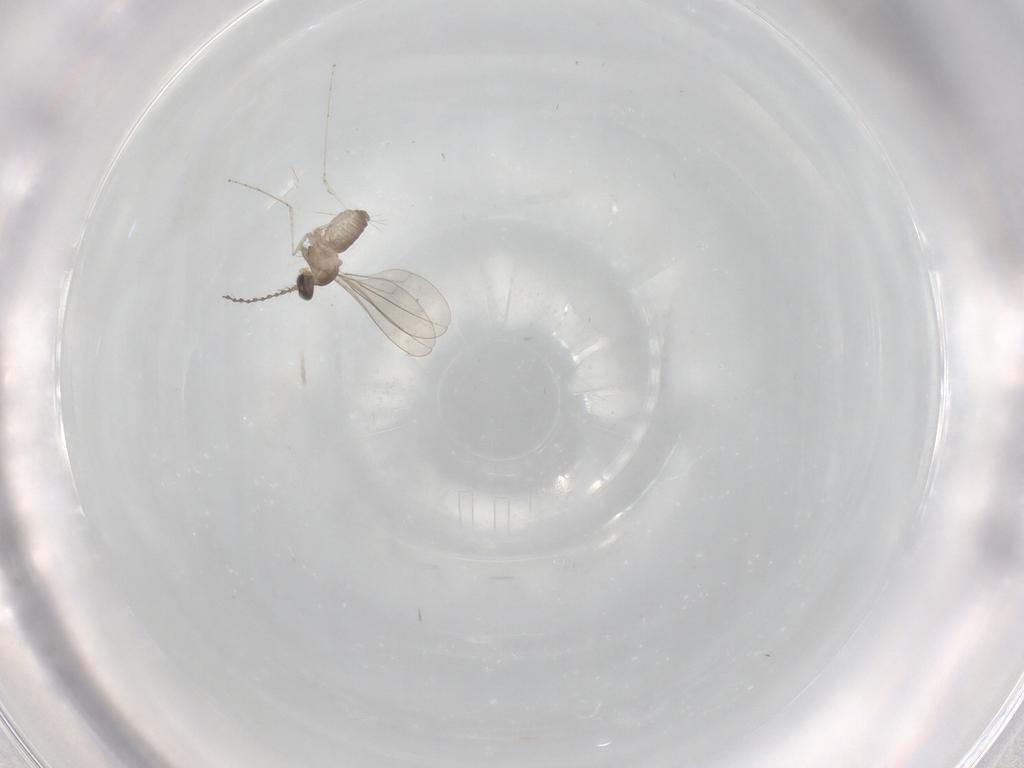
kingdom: Animalia
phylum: Arthropoda
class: Insecta
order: Diptera
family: Cecidomyiidae
